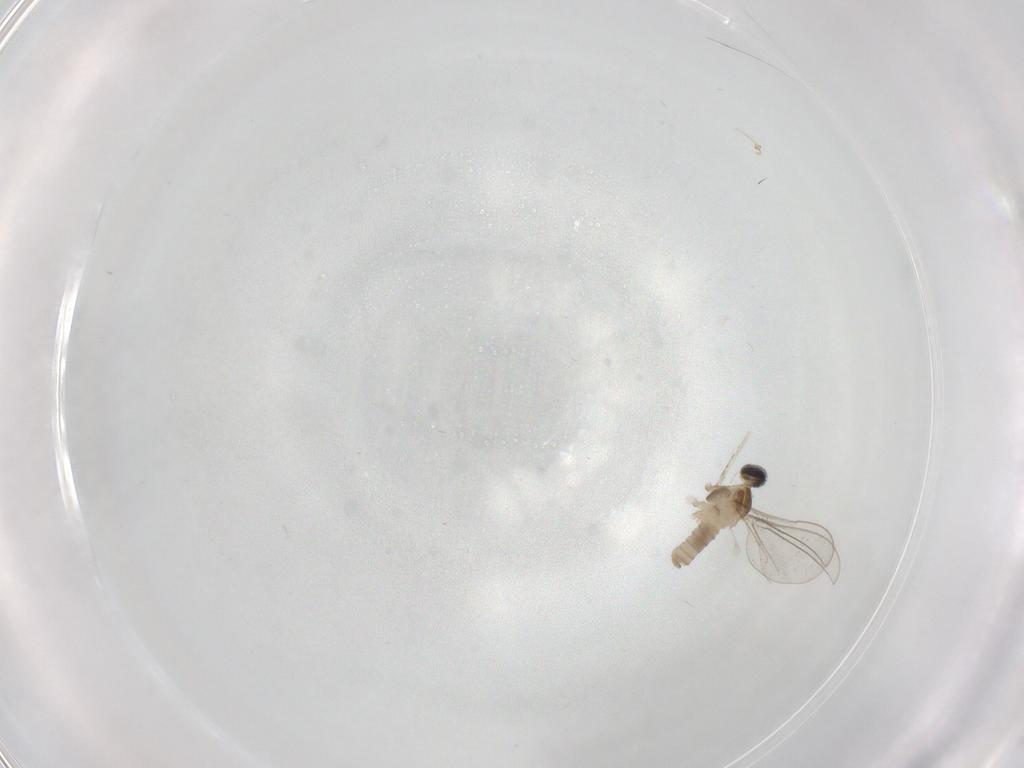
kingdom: Animalia
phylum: Arthropoda
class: Insecta
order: Diptera
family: Cecidomyiidae
